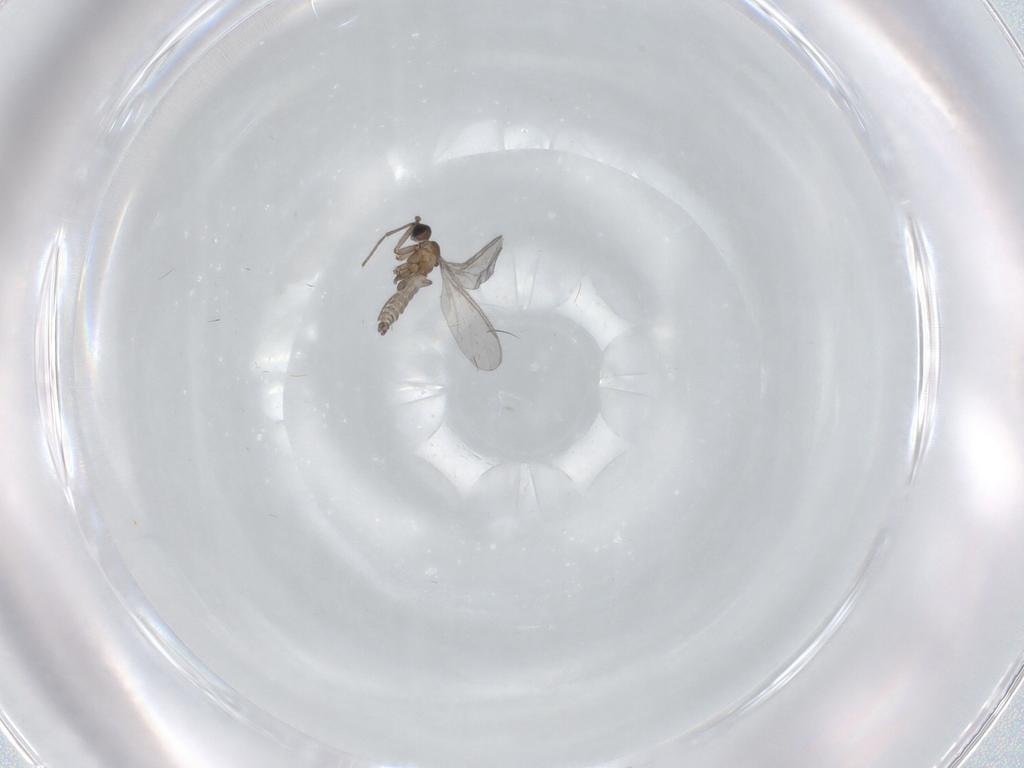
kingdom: Animalia
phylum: Arthropoda
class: Insecta
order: Diptera
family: Sciaridae
